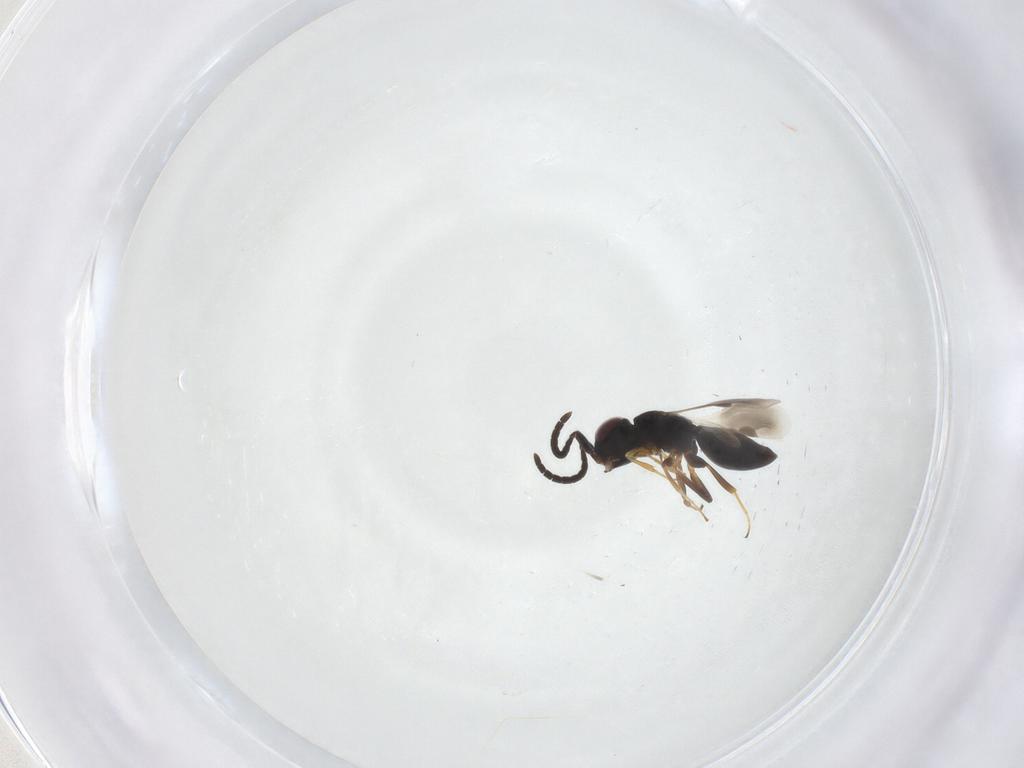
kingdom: Animalia
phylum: Arthropoda
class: Insecta
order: Hymenoptera
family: Megaspilidae
